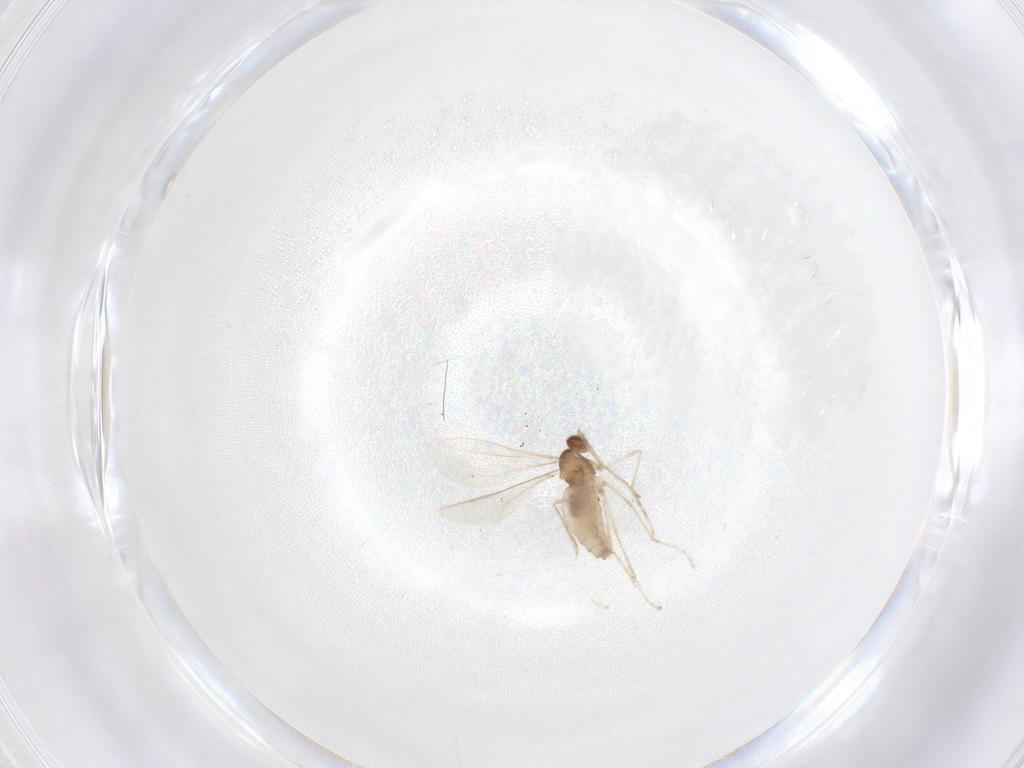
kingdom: Animalia
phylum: Arthropoda
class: Insecta
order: Diptera
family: Cecidomyiidae
